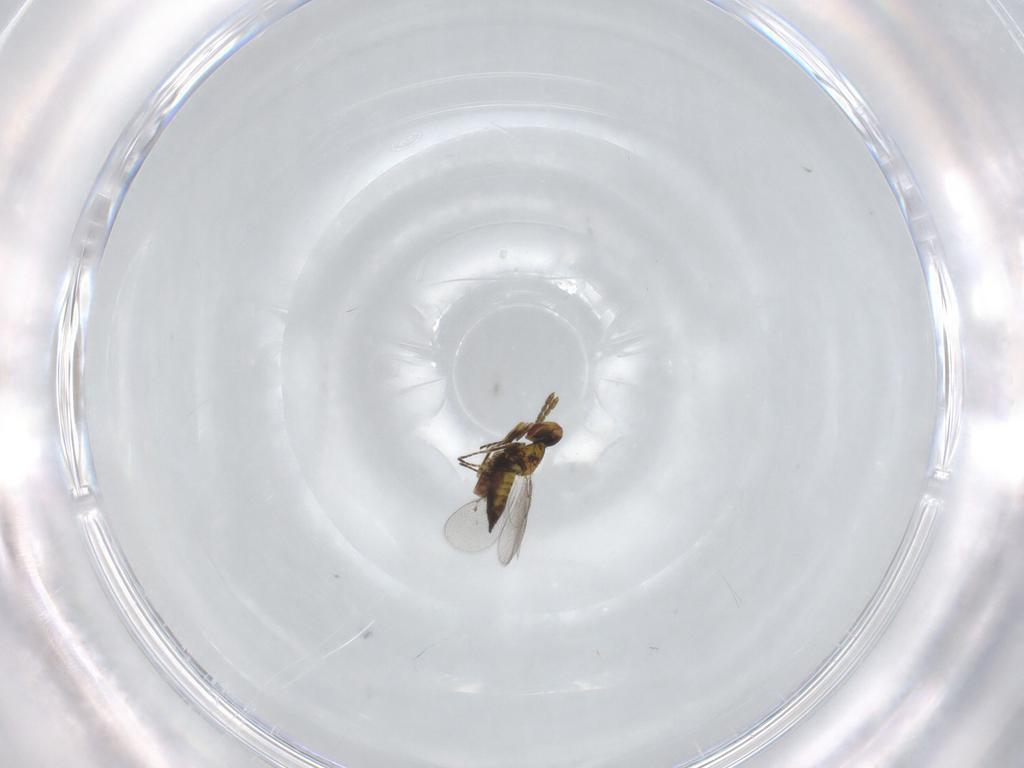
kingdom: Animalia
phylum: Arthropoda
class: Insecta
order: Hymenoptera
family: Eulophidae
